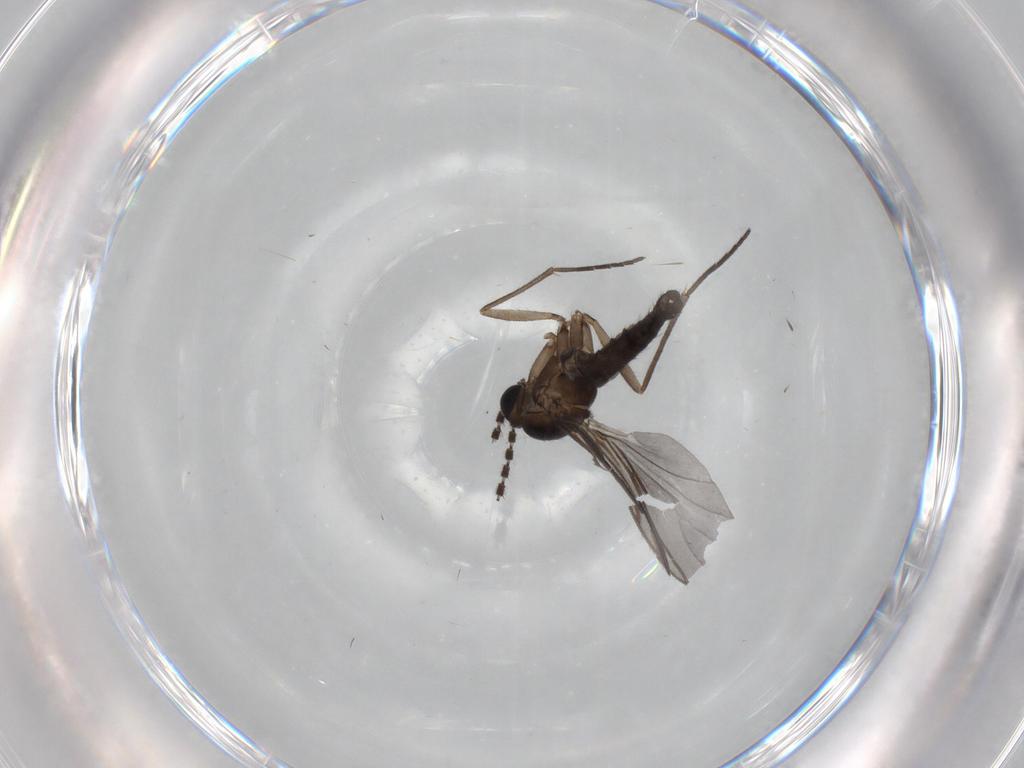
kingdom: Animalia
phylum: Arthropoda
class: Insecta
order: Diptera
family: Sciaridae
